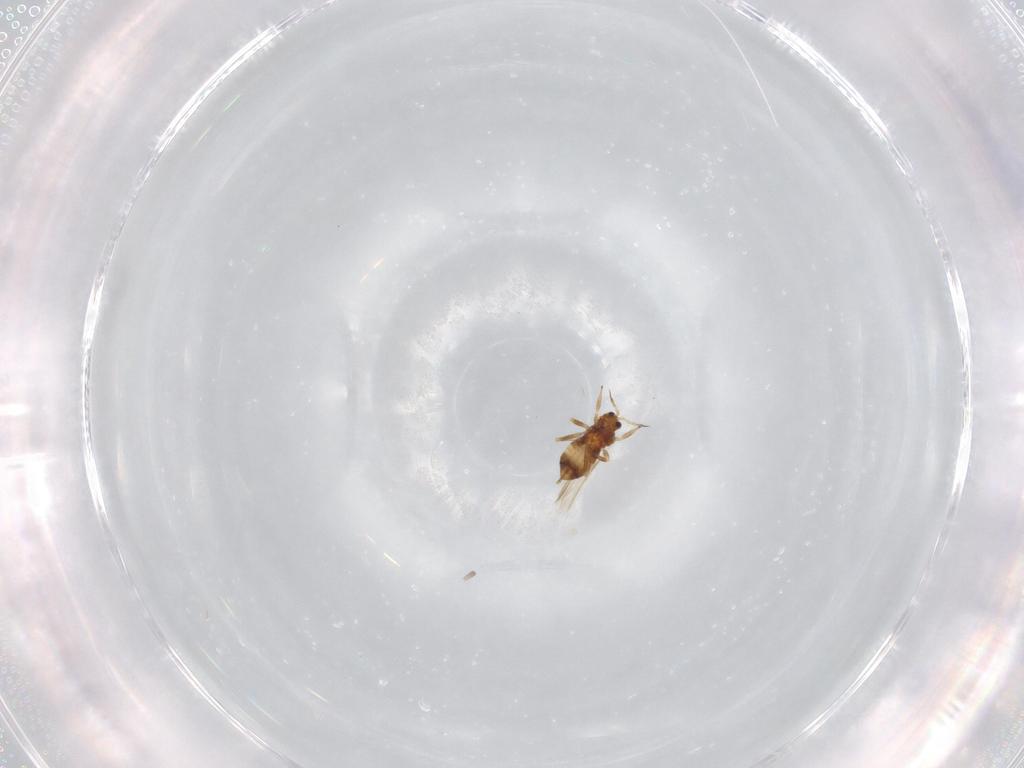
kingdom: Animalia
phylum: Arthropoda
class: Insecta
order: Thysanoptera
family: Thripidae
